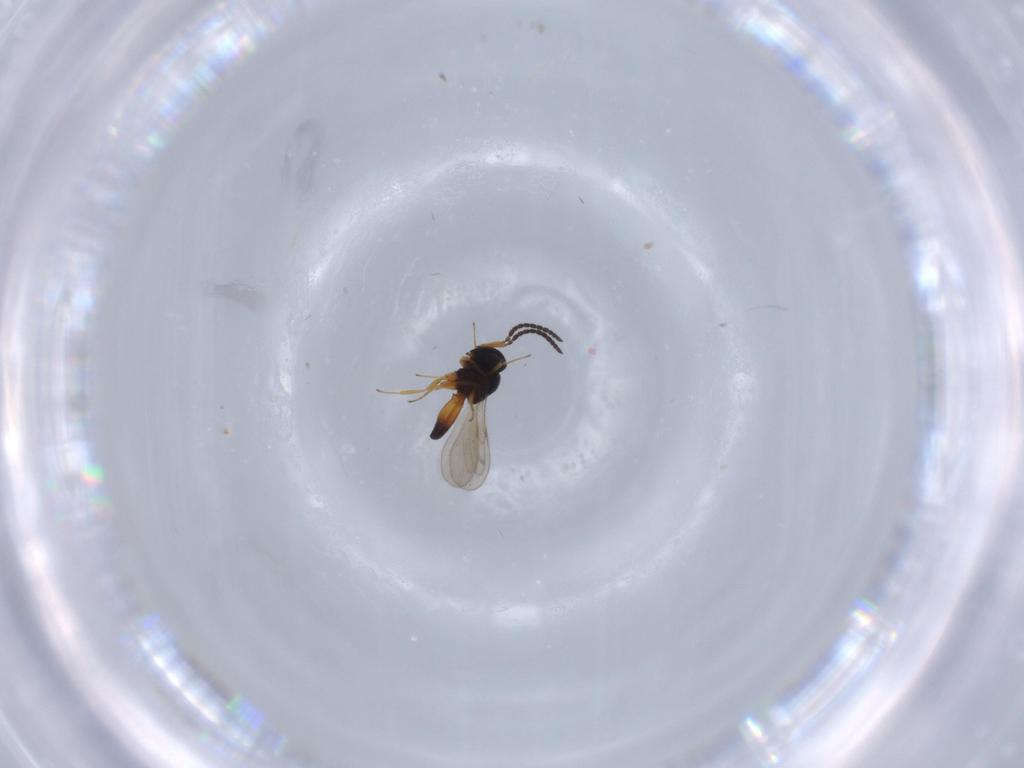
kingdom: Animalia
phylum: Arthropoda
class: Insecta
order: Hymenoptera
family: Scelionidae
